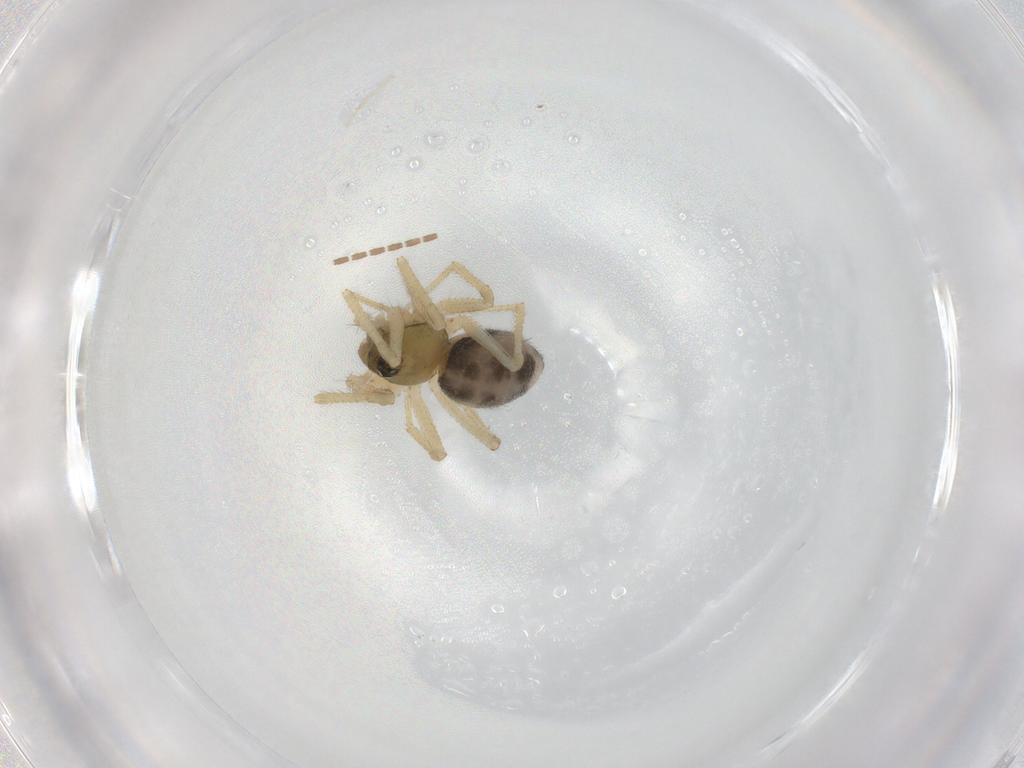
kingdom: Animalia
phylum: Arthropoda
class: Arachnida
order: Araneae
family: Linyphiidae
